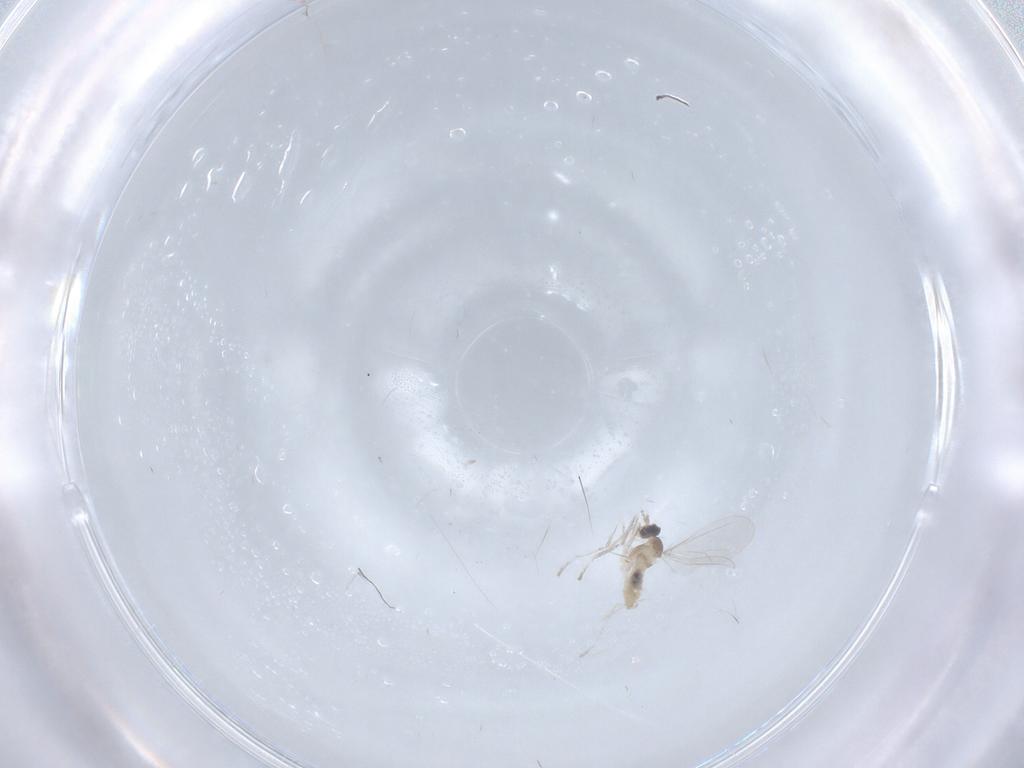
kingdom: Animalia
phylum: Arthropoda
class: Insecta
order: Diptera
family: Cecidomyiidae
